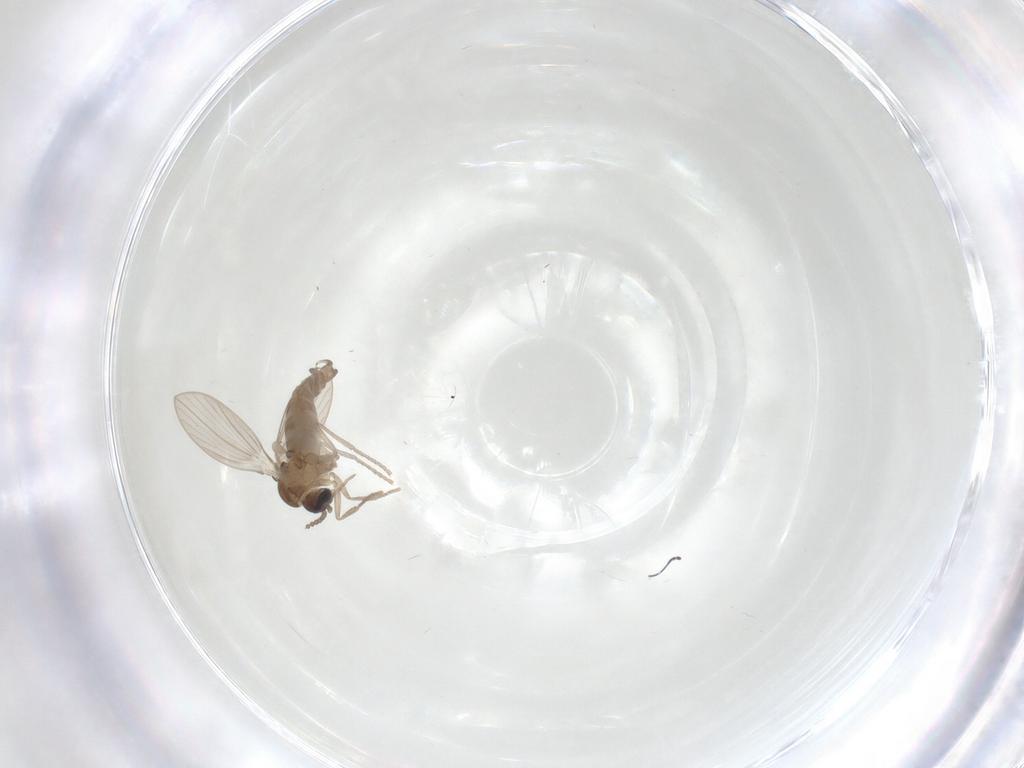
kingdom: Animalia
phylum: Arthropoda
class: Insecta
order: Diptera
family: Psychodidae
